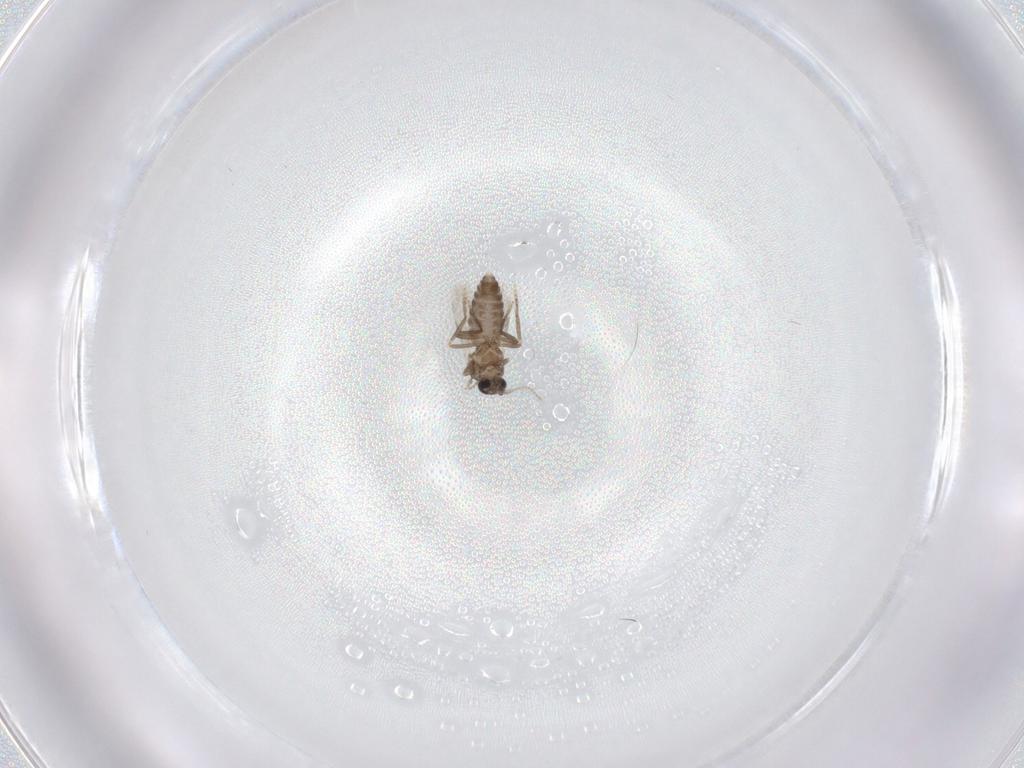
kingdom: Animalia
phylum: Arthropoda
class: Insecta
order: Diptera
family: Ceratopogonidae
